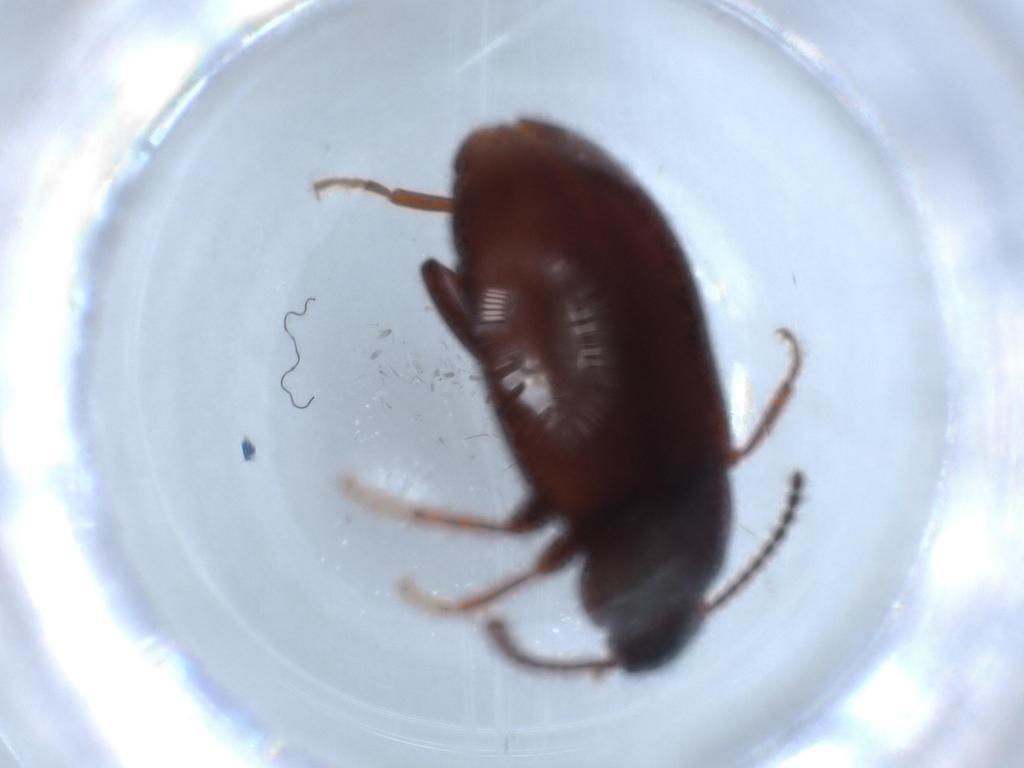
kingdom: Animalia
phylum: Arthropoda
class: Insecta
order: Coleoptera
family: Tenebrionidae
